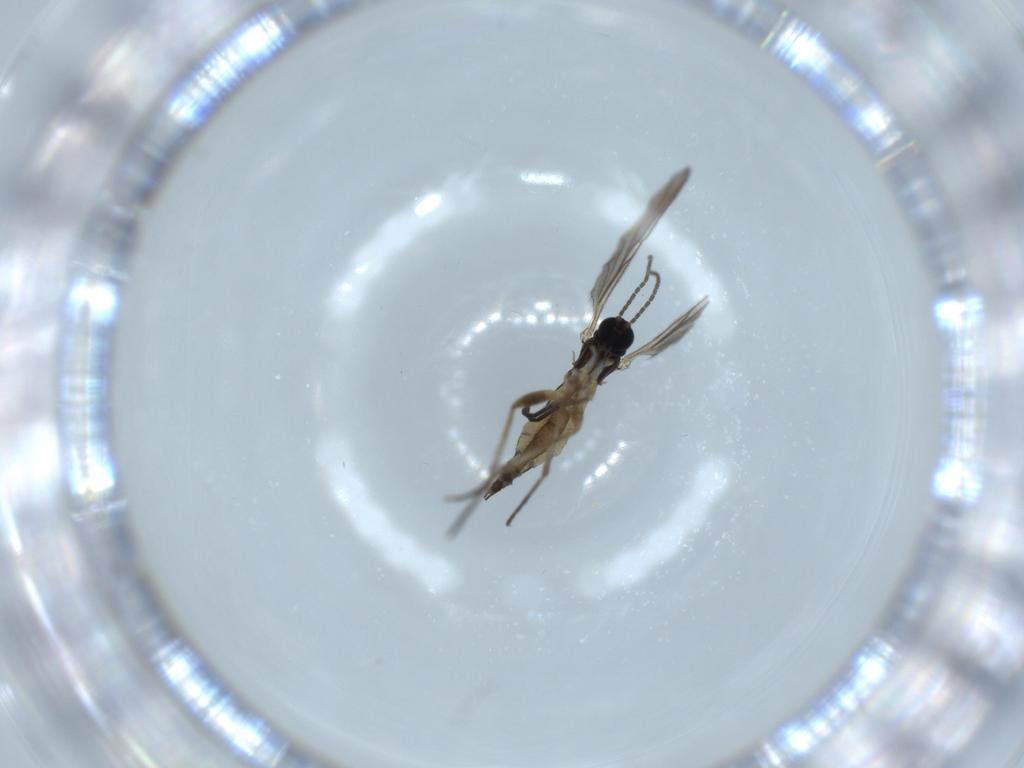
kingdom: Animalia
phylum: Arthropoda
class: Insecta
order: Diptera
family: Sciaridae
